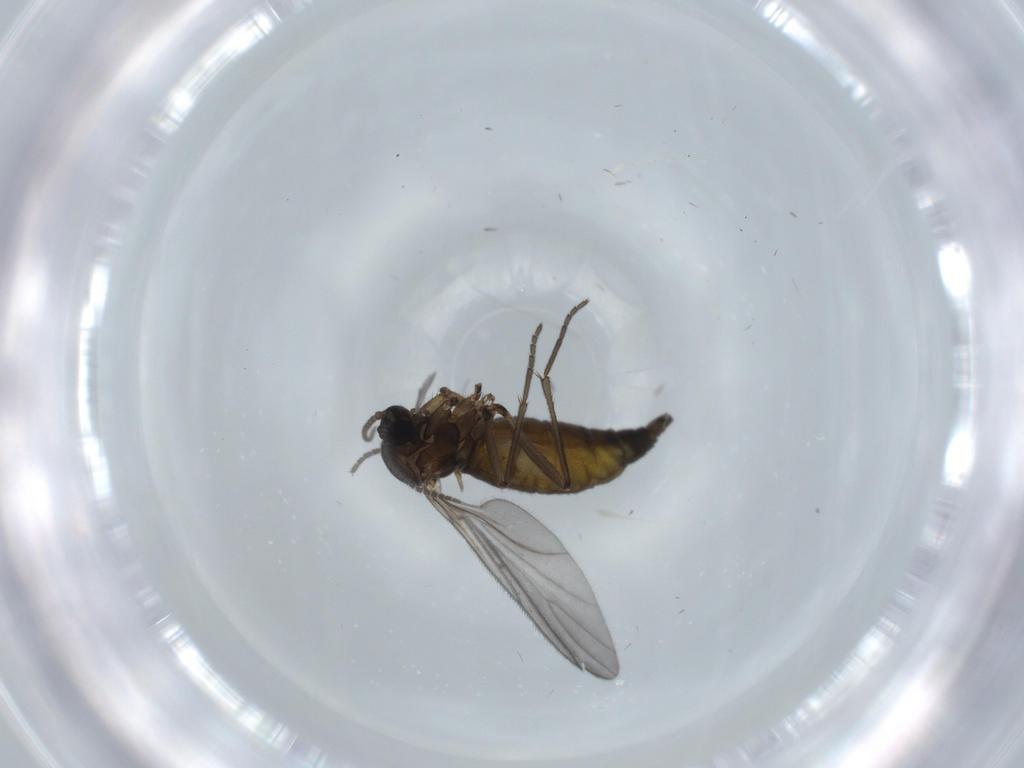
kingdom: Animalia
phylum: Arthropoda
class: Insecta
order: Diptera
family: Sciaridae
